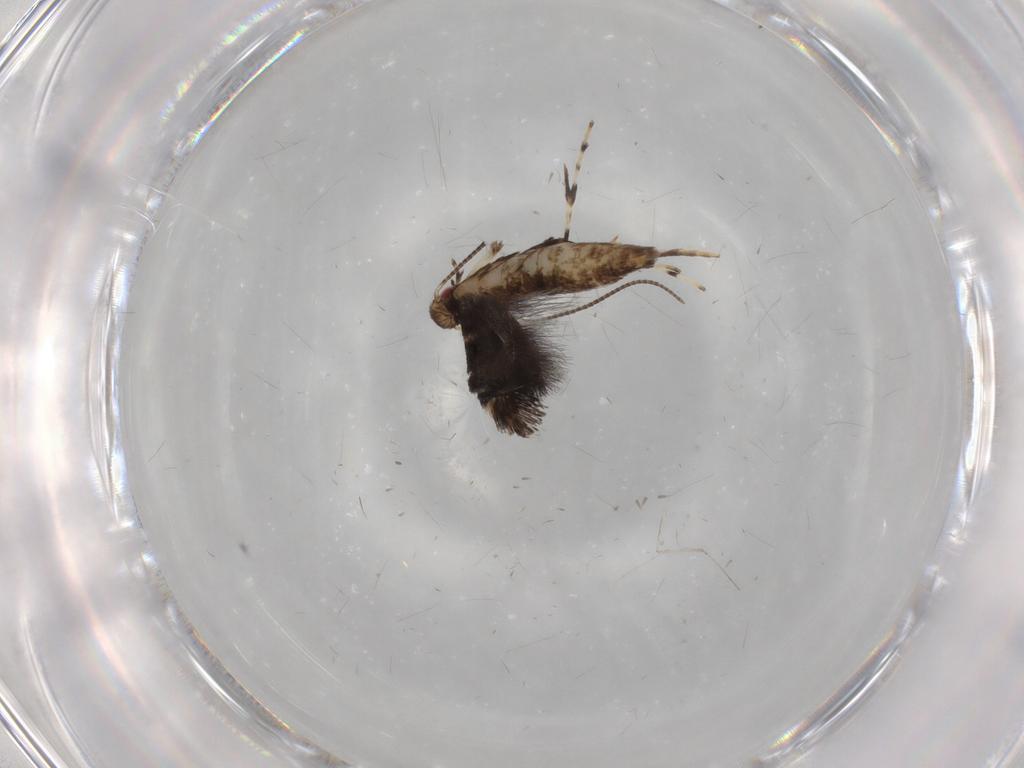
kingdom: Animalia
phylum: Arthropoda
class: Insecta
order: Lepidoptera
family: Gracillariidae
